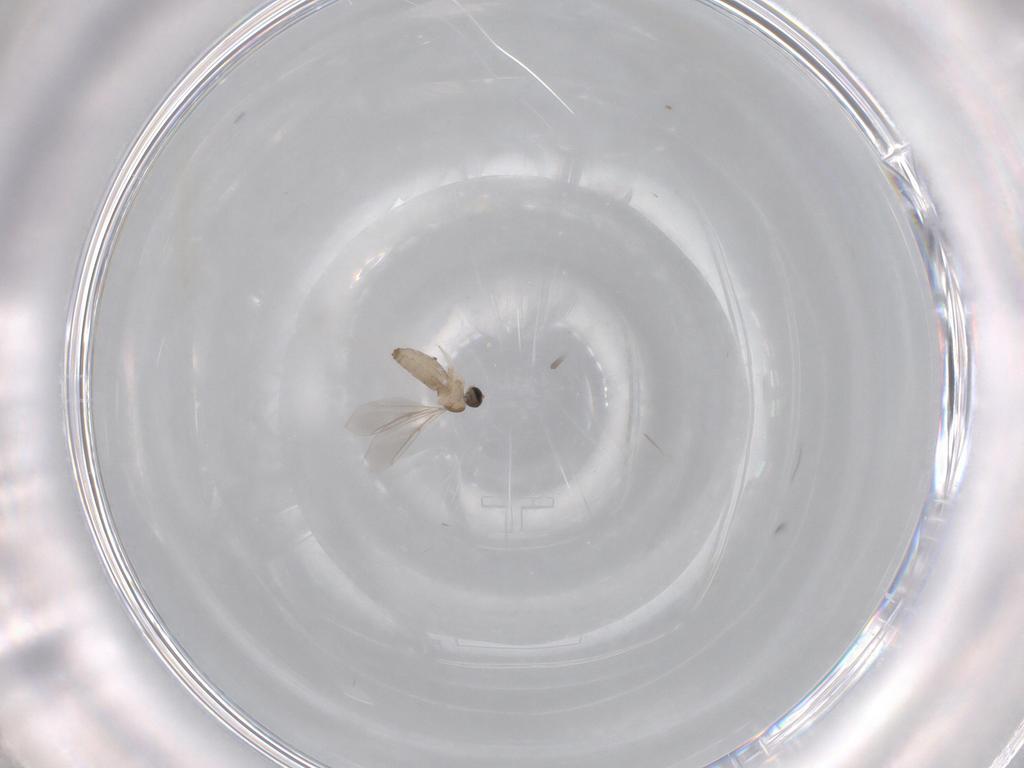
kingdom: Animalia
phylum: Arthropoda
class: Insecta
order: Diptera
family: Cecidomyiidae
